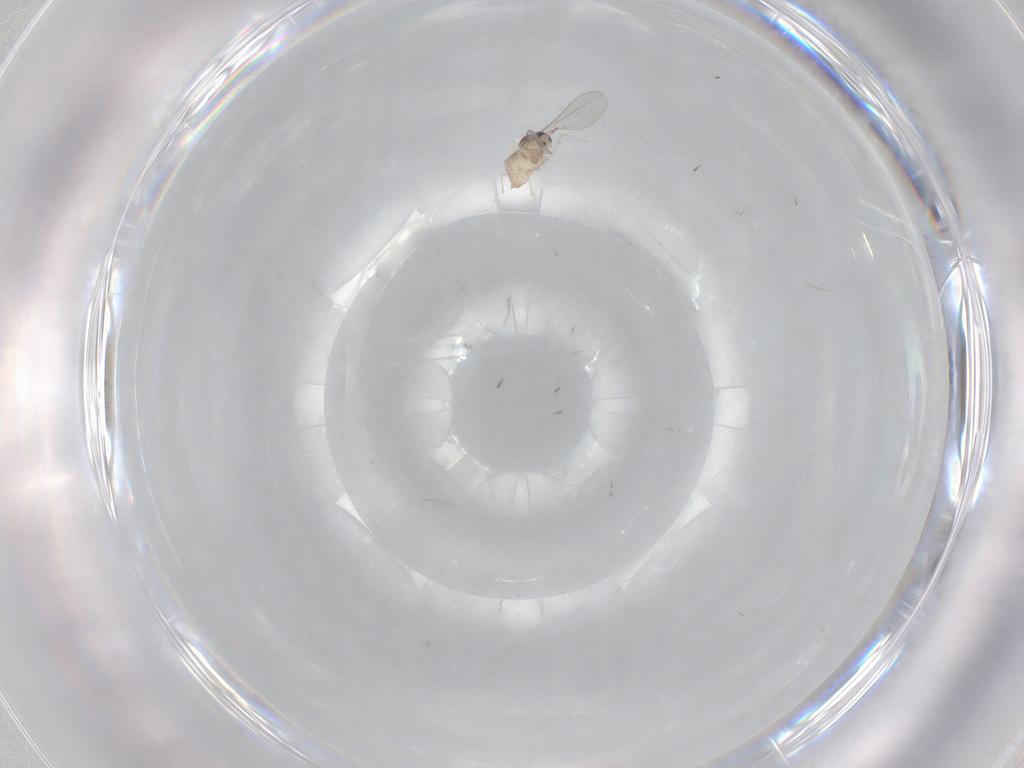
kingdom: Animalia
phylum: Arthropoda
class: Insecta
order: Diptera
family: Cecidomyiidae
